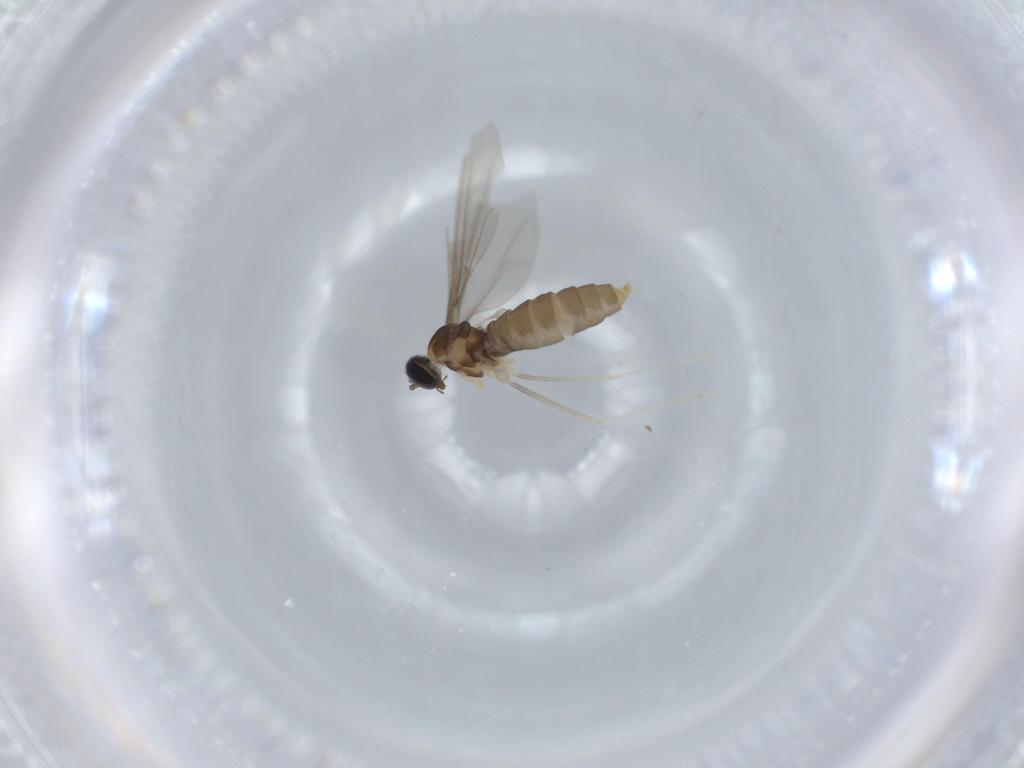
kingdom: Animalia
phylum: Arthropoda
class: Insecta
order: Diptera
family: Cecidomyiidae
